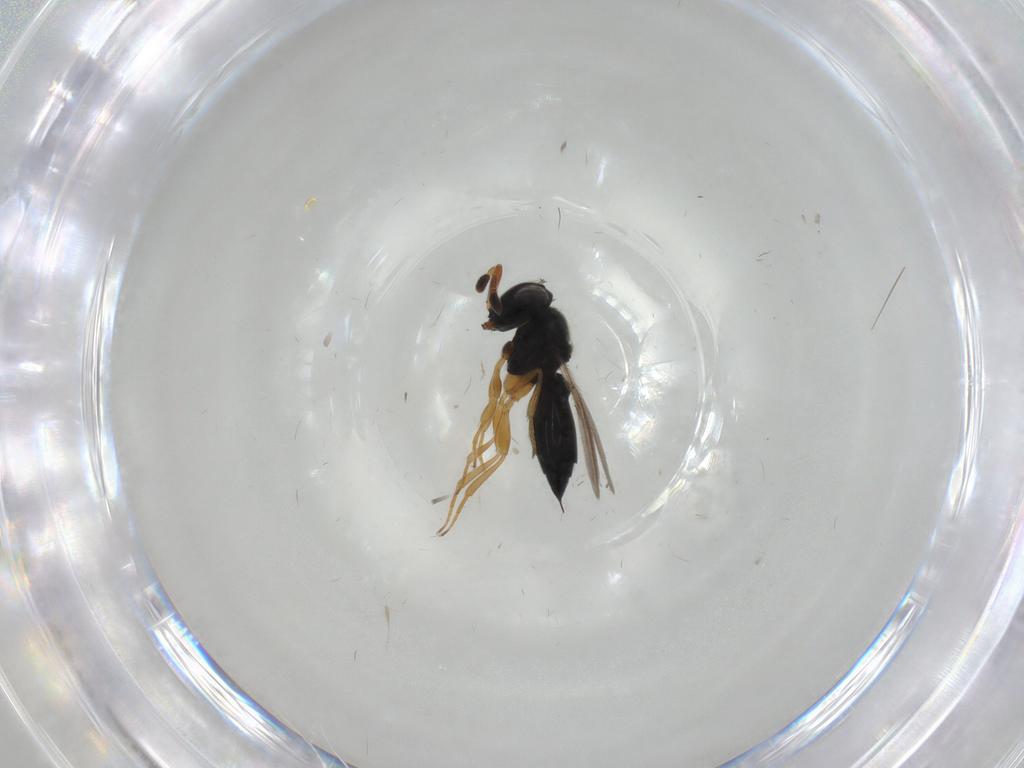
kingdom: Animalia
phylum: Arthropoda
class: Insecta
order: Hymenoptera
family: Scelionidae
